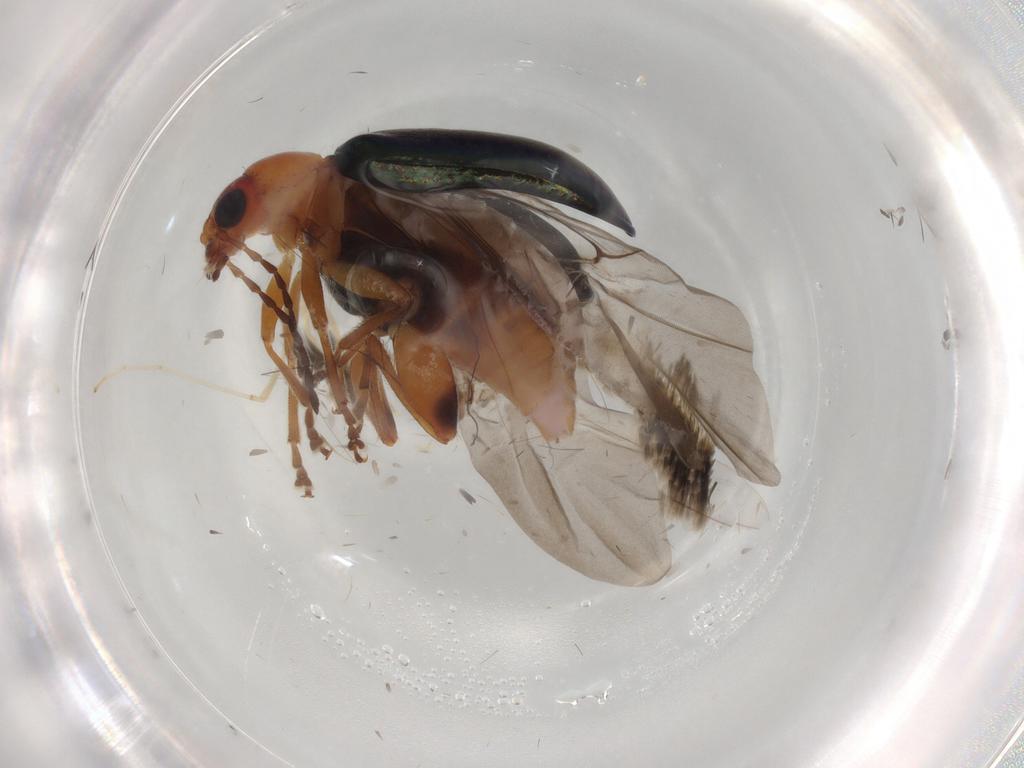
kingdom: Animalia
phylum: Arthropoda
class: Insecta
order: Coleoptera
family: Chrysomelidae
